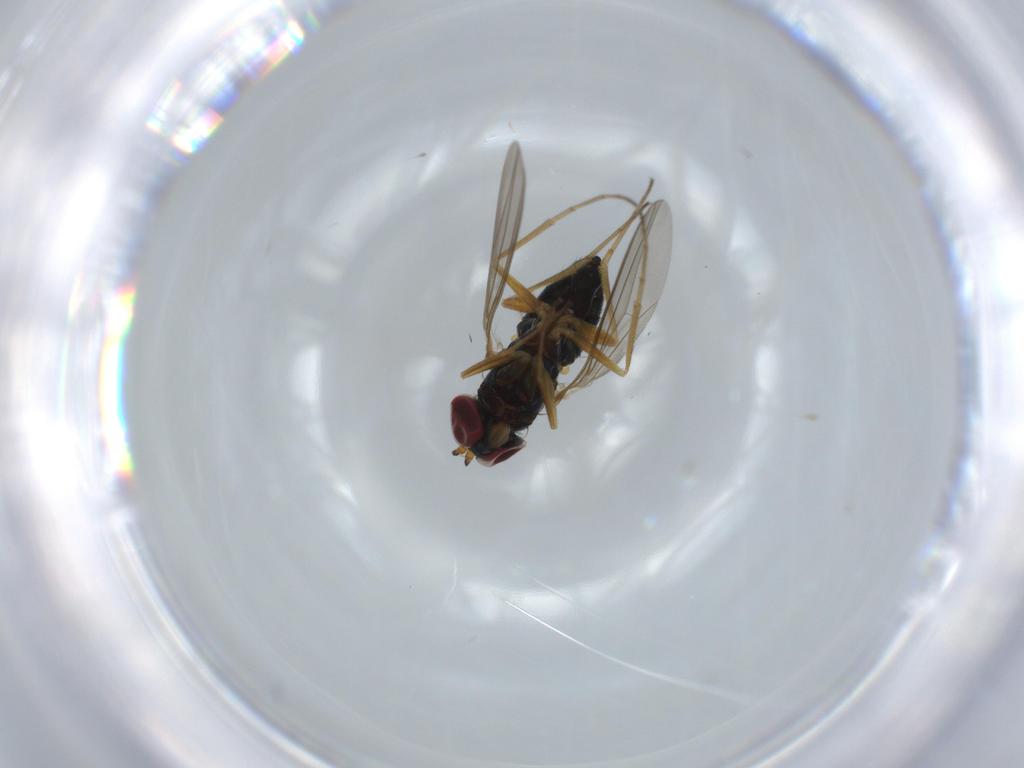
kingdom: Animalia
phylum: Arthropoda
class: Insecta
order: Diptera
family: Dolichopodidae
